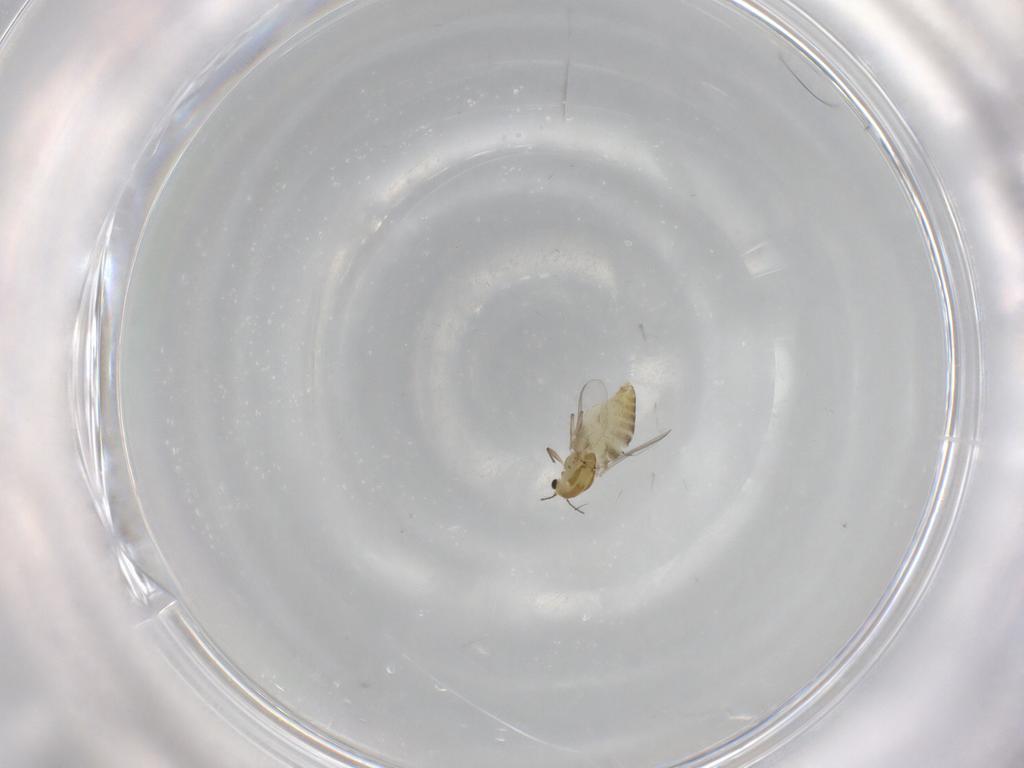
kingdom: Animalia
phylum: Arthropoda
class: Insecta
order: Diptera
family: Chironomidae
